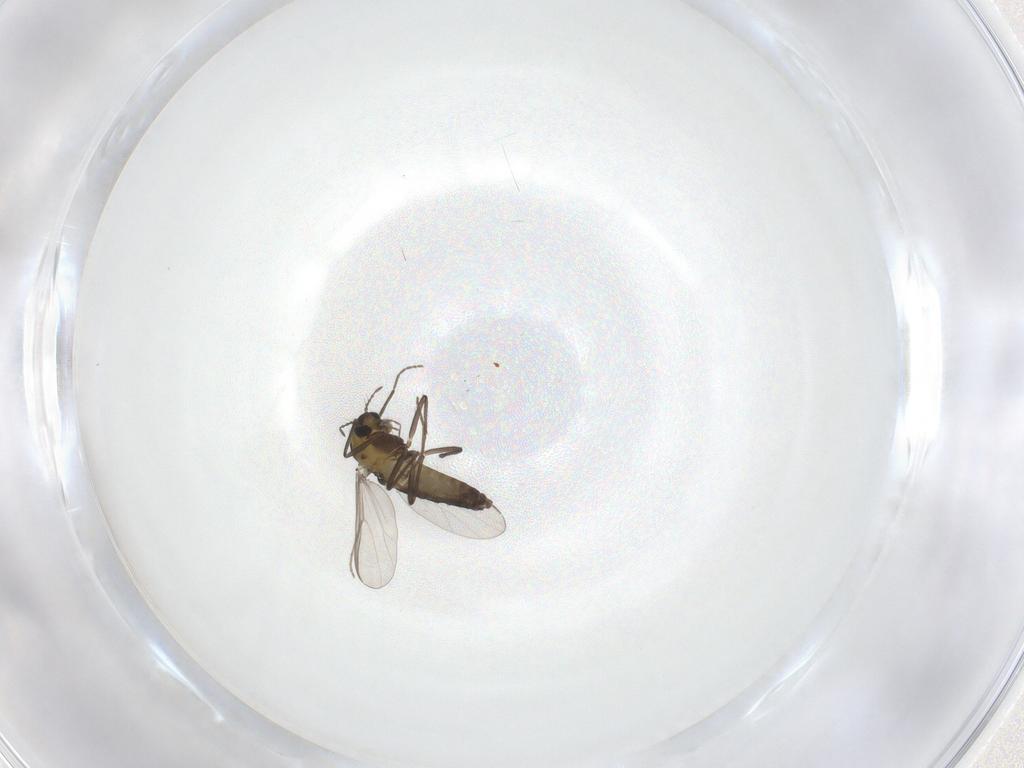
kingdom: Animalia
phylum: Arthropoda
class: Insecta
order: Diptera
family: Chironomidae
